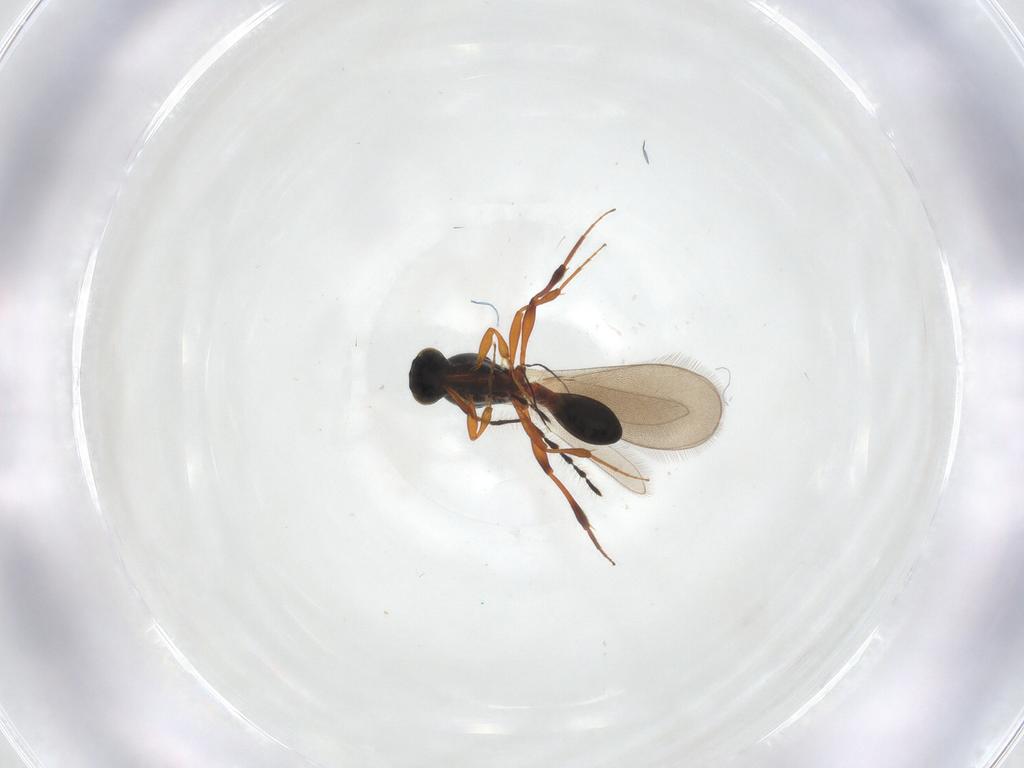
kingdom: Animalia
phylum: Arthropoda
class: Insecta
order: Hymenoptera
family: Platygastridae
